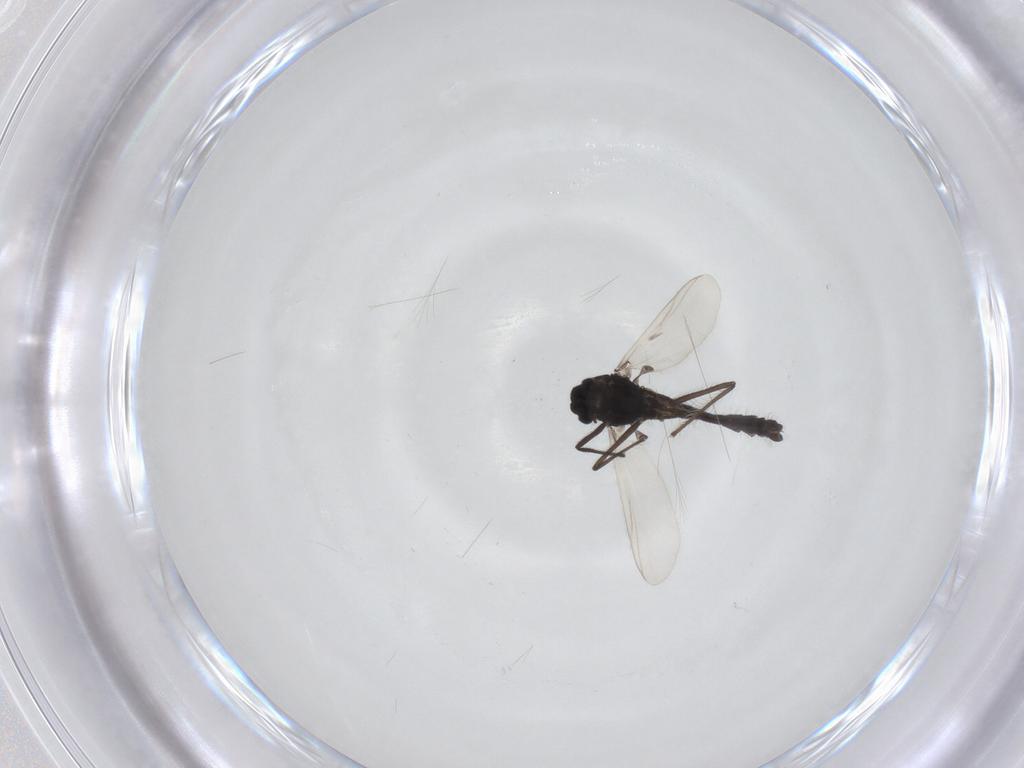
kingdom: Animalia
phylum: Arthropoda
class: Insecta
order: Diptera
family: Chironomidae
